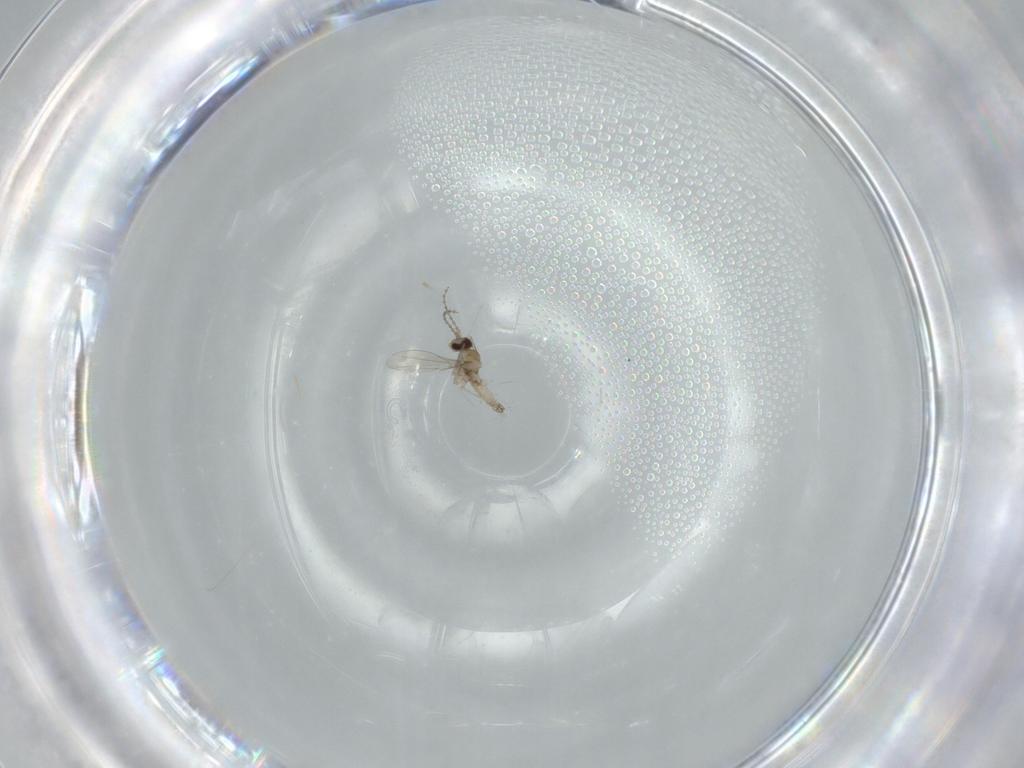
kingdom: Animalia
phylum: Arthropoda
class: Insecta
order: Diptera
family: Cecidomyiidae
